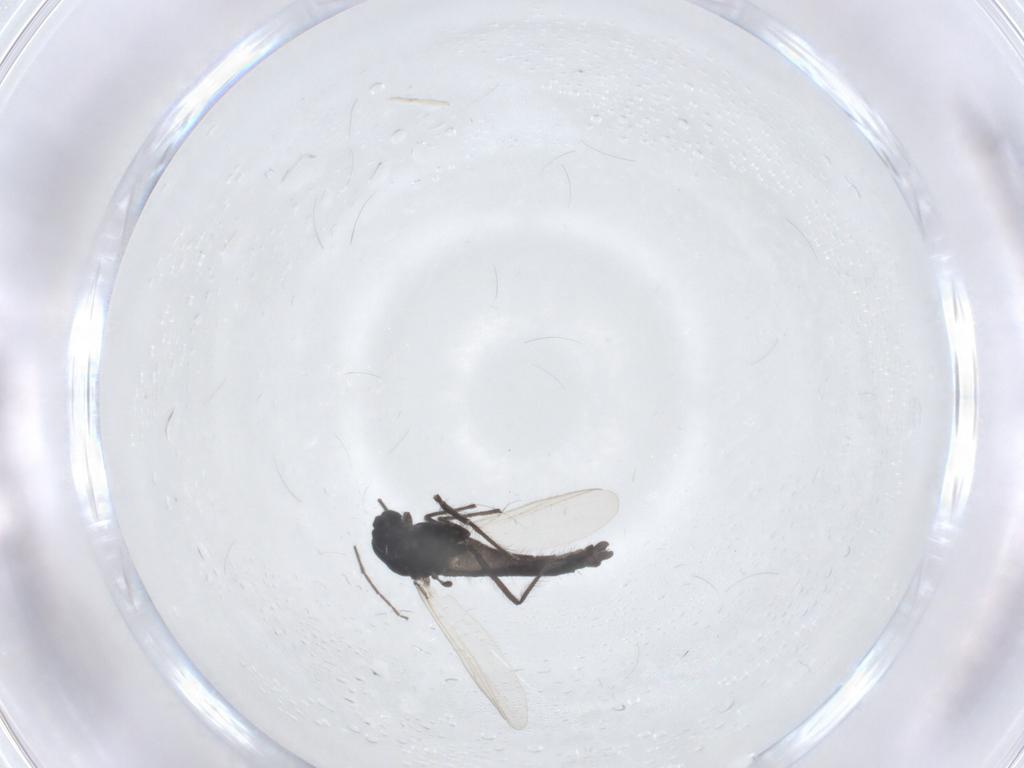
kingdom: Animalia
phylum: Arthropoda
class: Insecta
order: Diptera
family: Chironomidae
